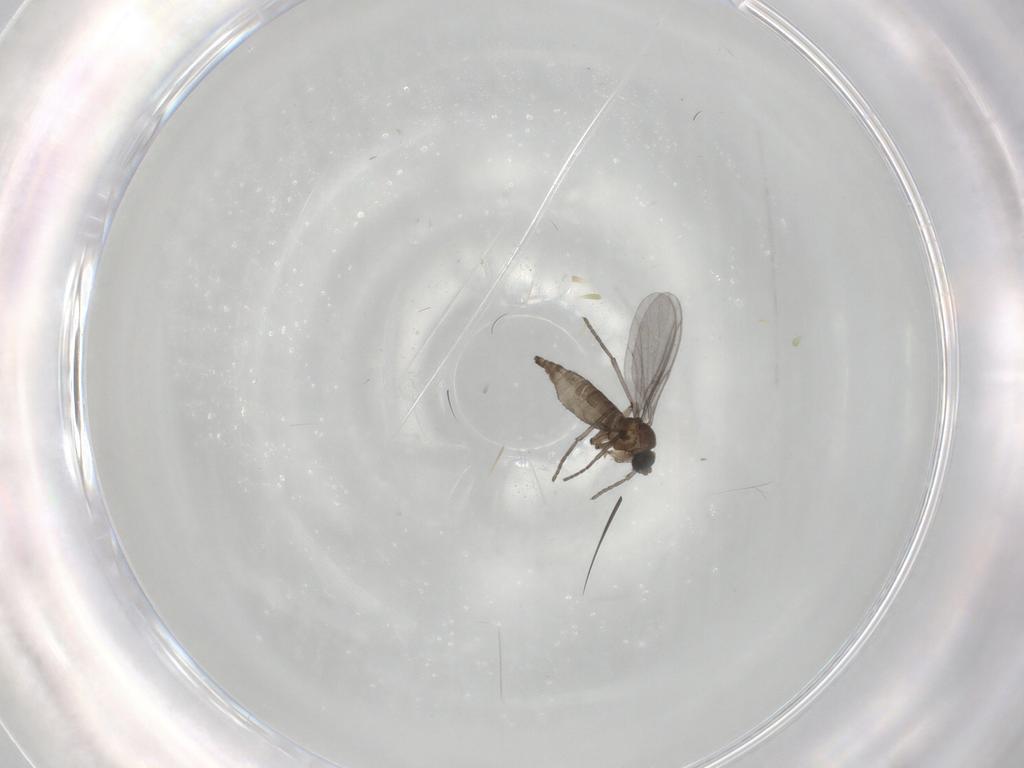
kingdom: Animalia
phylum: Arthropoda
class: Insecta
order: Diptera
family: Sciaridae
